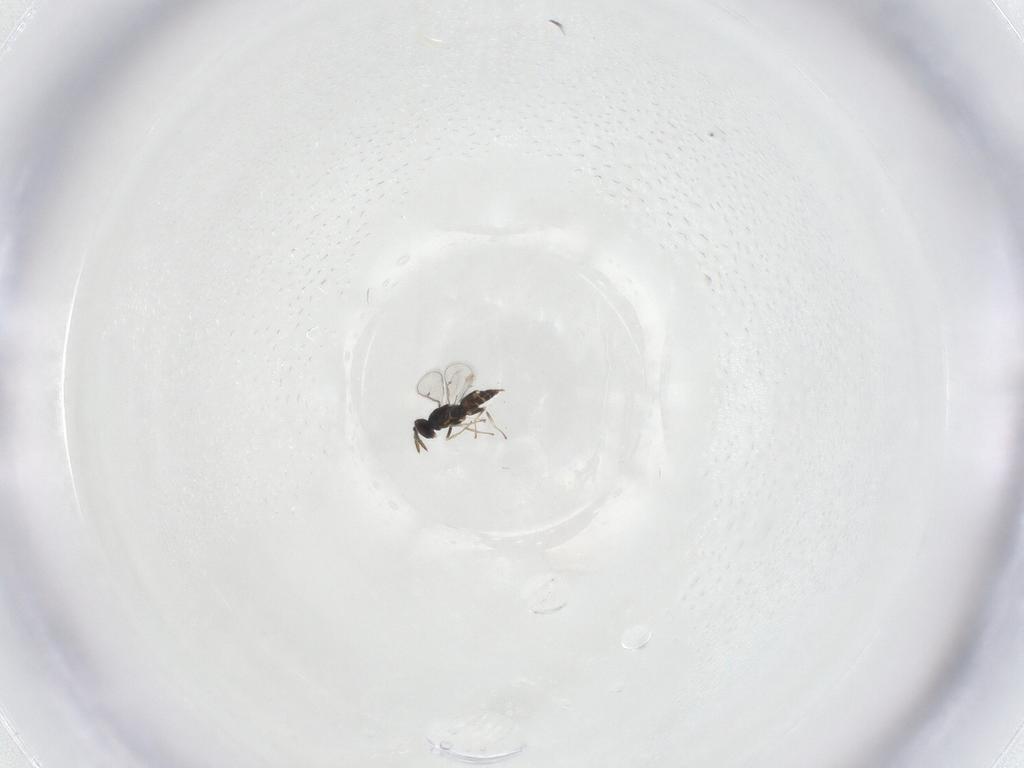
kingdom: Animalia
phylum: Arthropoda
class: Insecta
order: Hymenoptera
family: Eulophidae
